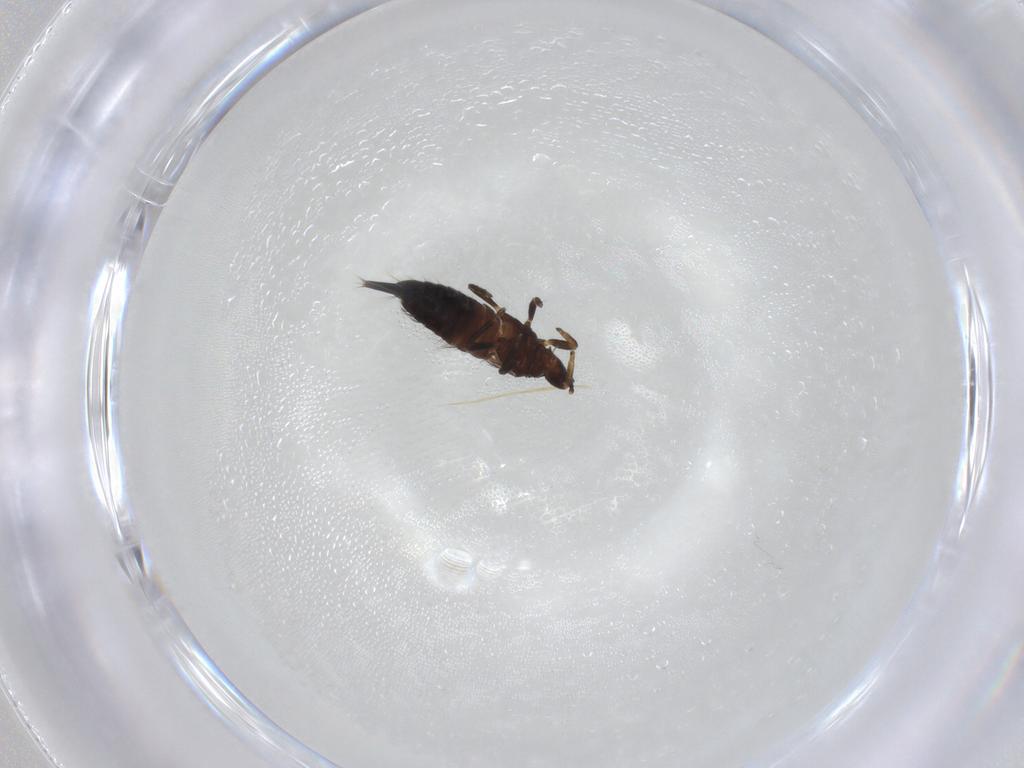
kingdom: Animalia
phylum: Arthropoda
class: Insecta
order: Thysanoptera
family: Phlaeothripidae
